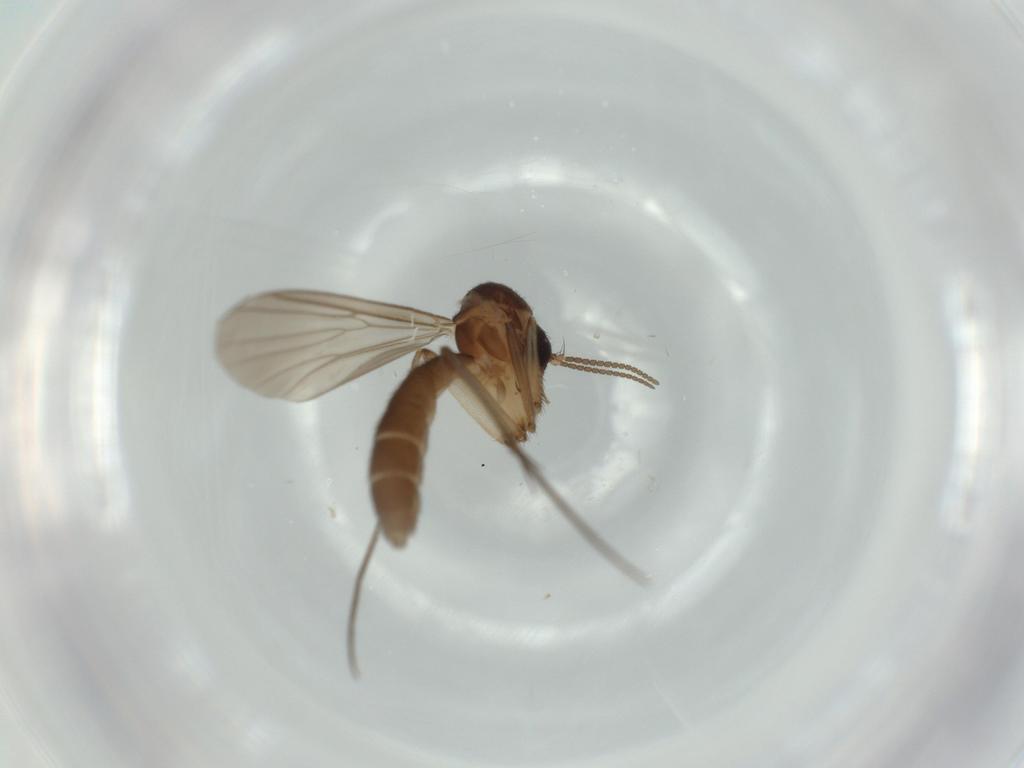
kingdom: Animalia
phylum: Arthropoda
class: Insecta
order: Diptera
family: Mycetophilidae
